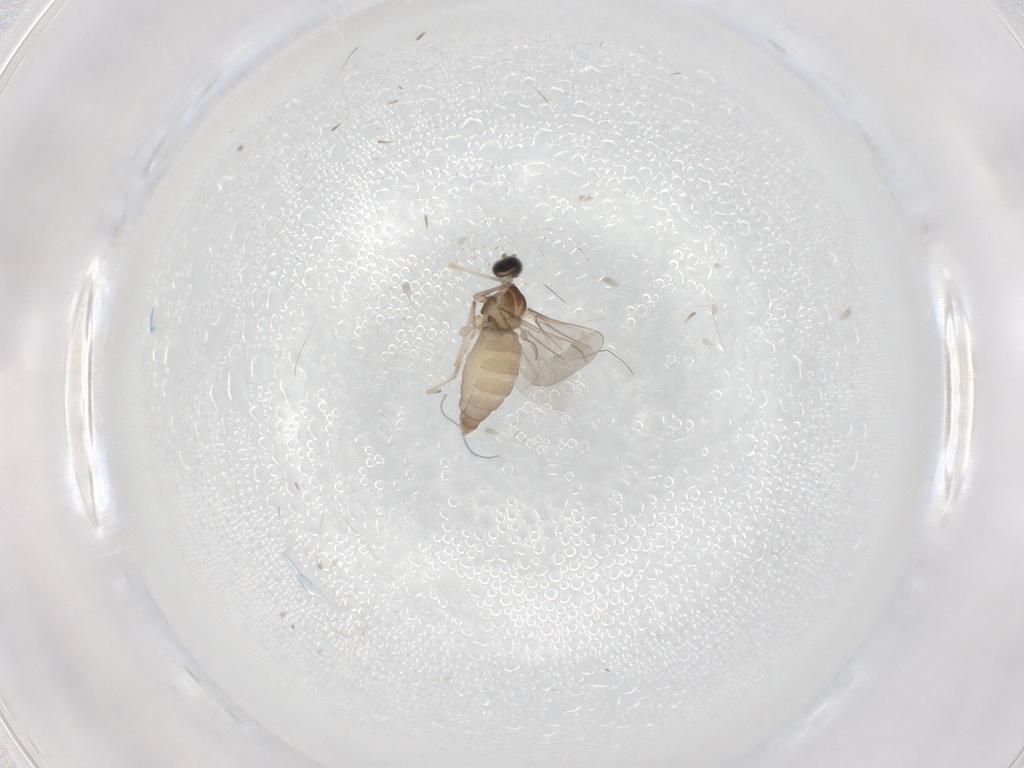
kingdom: Animalia
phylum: Arthropoda
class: Insecta
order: Diptera
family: Cecidomyiidae
